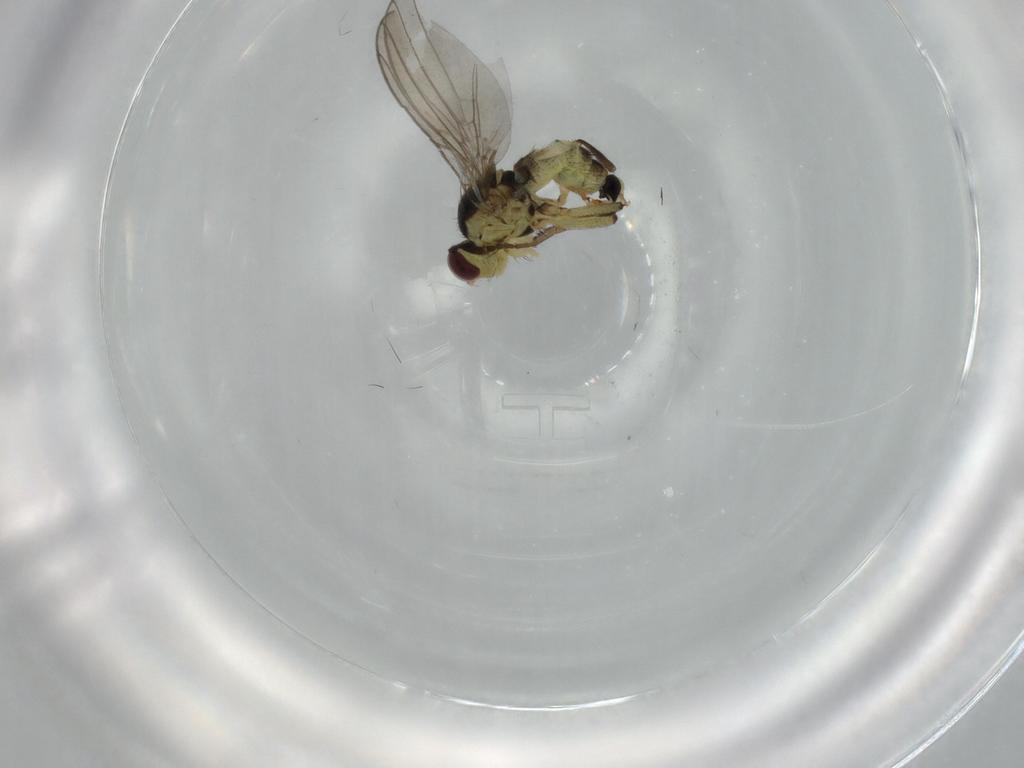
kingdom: Animalia
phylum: Arthropoda
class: Insecta
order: Diptera
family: Agromyzidae
